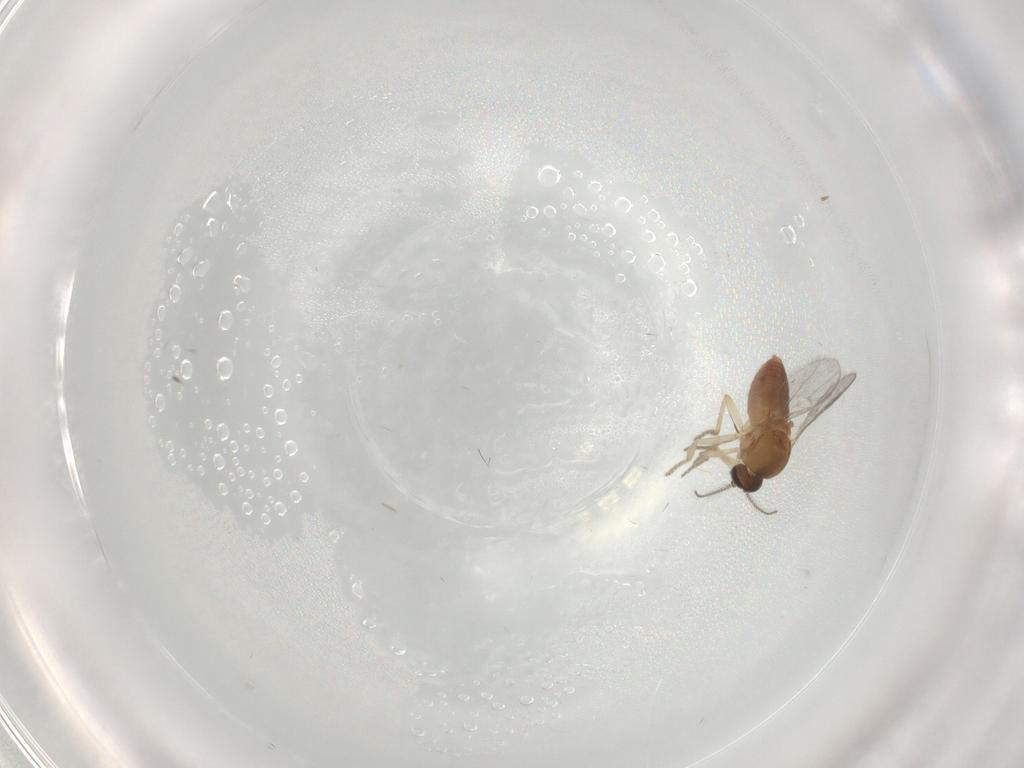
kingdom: Animalia
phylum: Arthropoda
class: Insecta
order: Diptera
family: Ceratopogonidae
